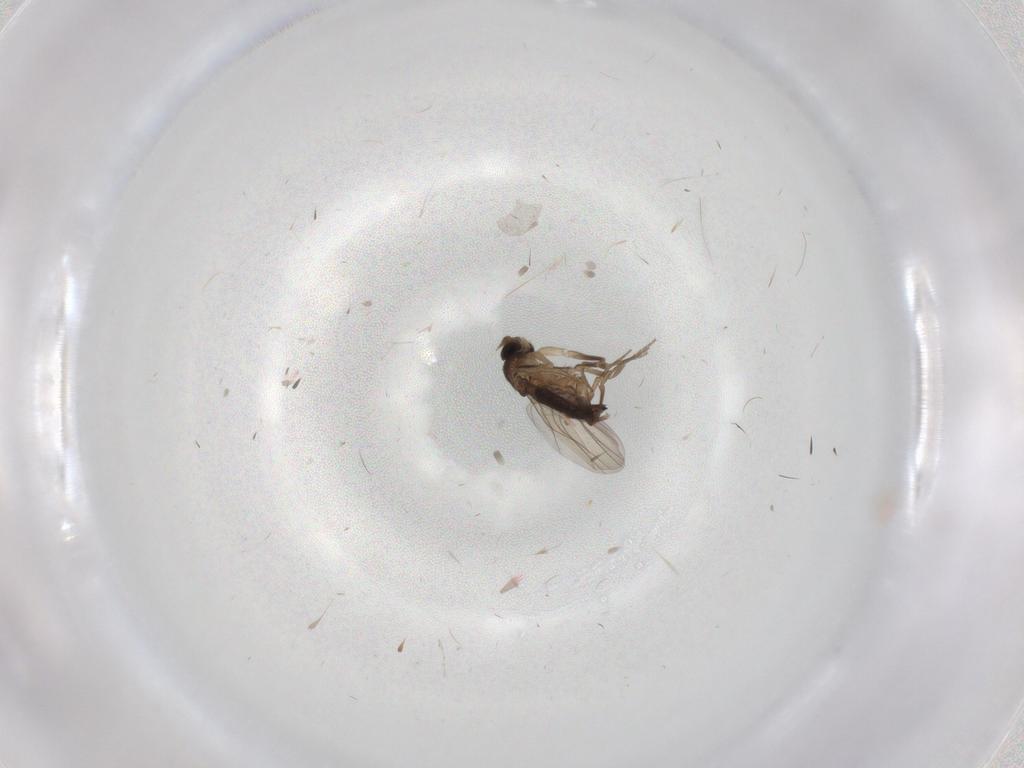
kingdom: Animalia
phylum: Arthropoda
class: Insecta
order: Diptera
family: Phoridae
